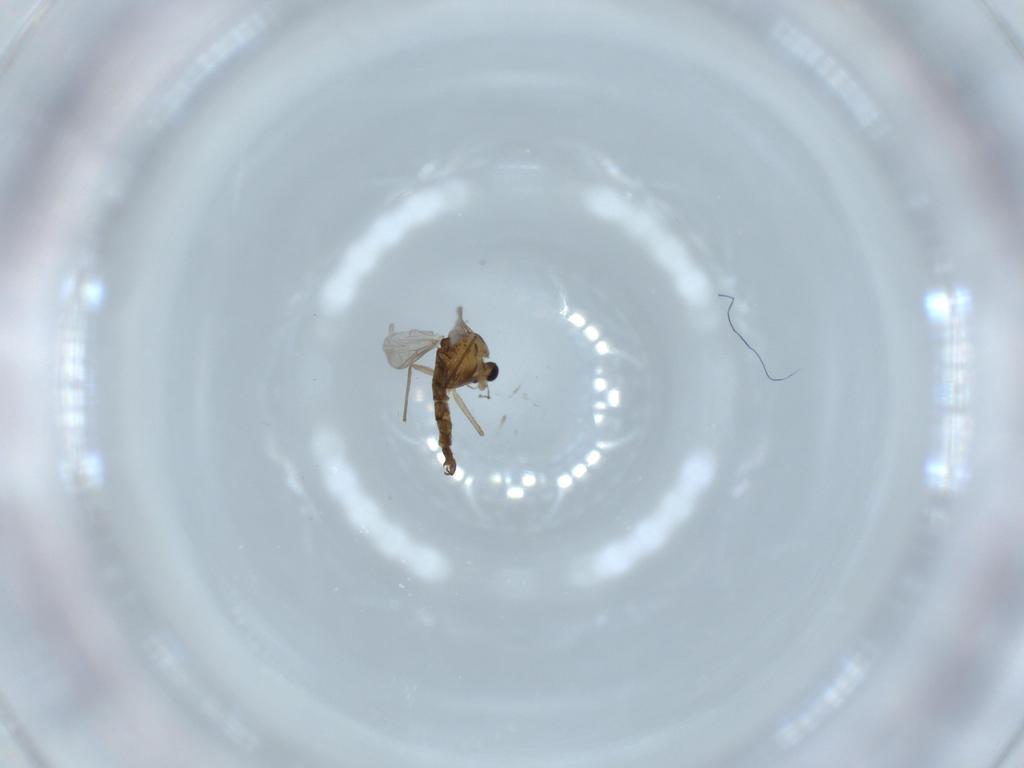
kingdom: Animalia
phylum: Arthropoda
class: Insecta
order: Diptera
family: Chironomidae
